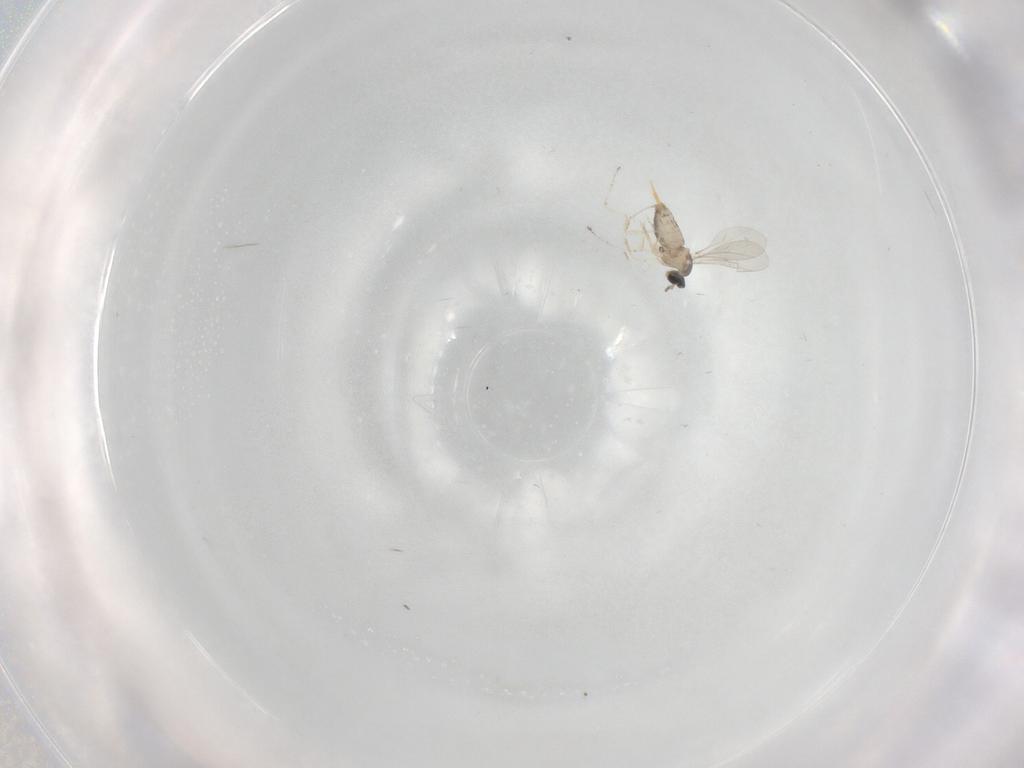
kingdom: Animalia
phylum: Arthropoda
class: Insecta
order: Diptera
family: Cecidomyiidae
